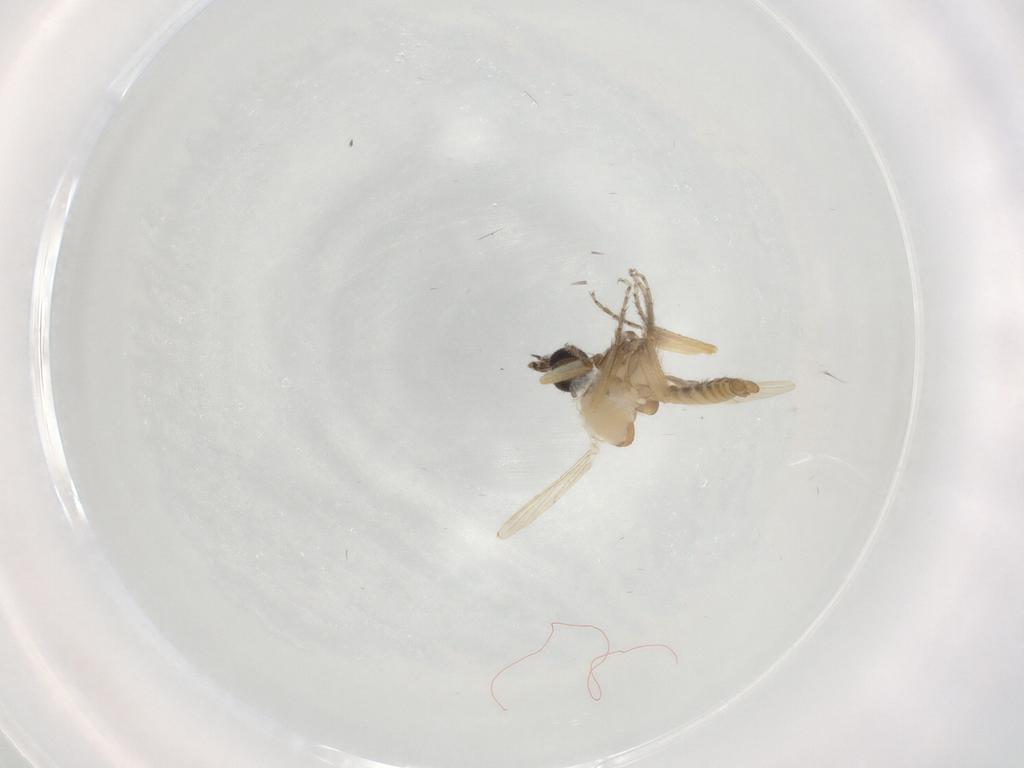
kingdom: Animalia
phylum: Arthropoda
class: Insecta
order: Diptera
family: Ceratopogonidae
